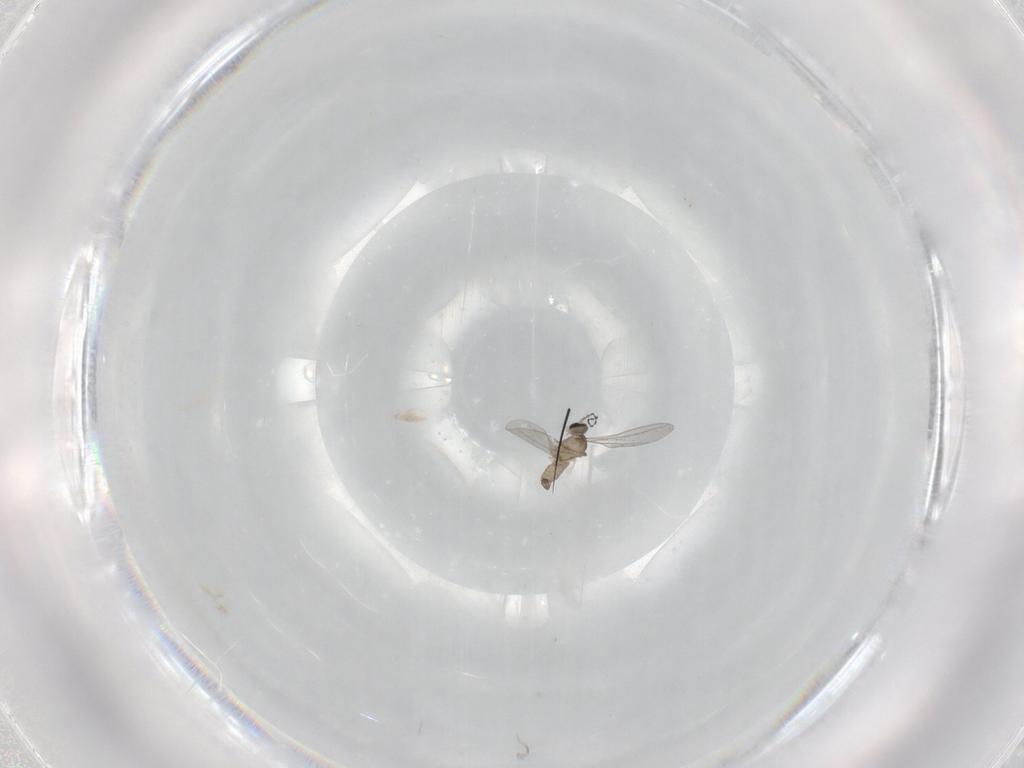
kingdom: Animalia
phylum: Arthropoda
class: Insecta
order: Diptera
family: Cecidomyiidae
